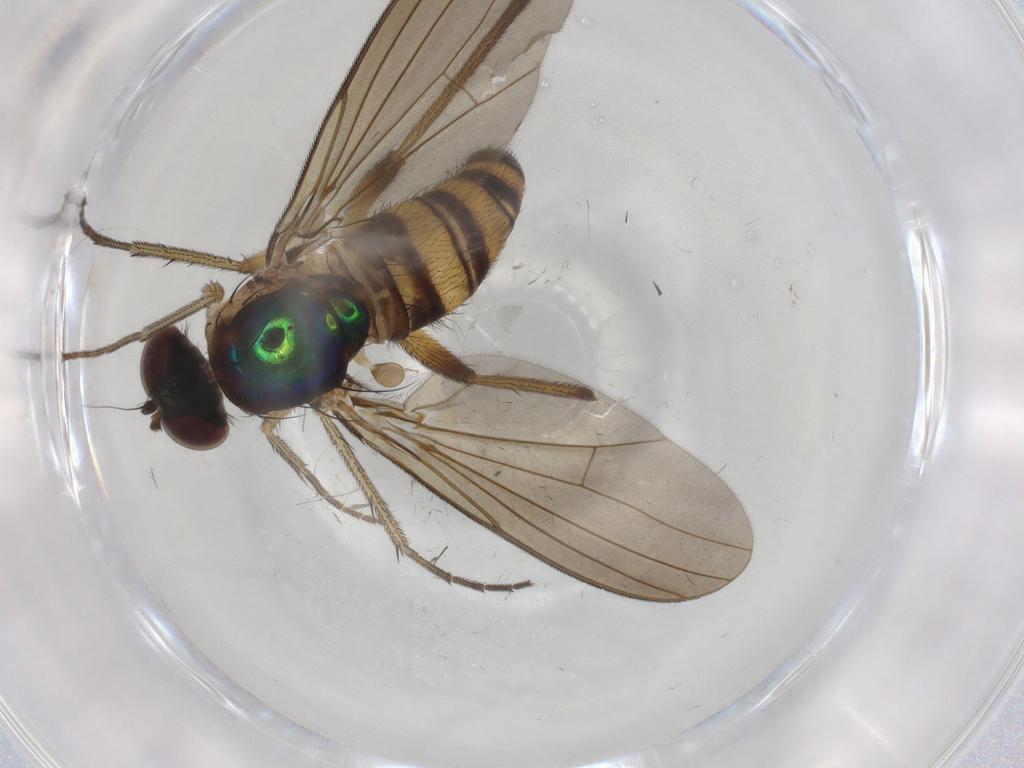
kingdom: Animalia
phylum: Arthropoda
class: Insecta
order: Diptera
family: Dolichopodidae
